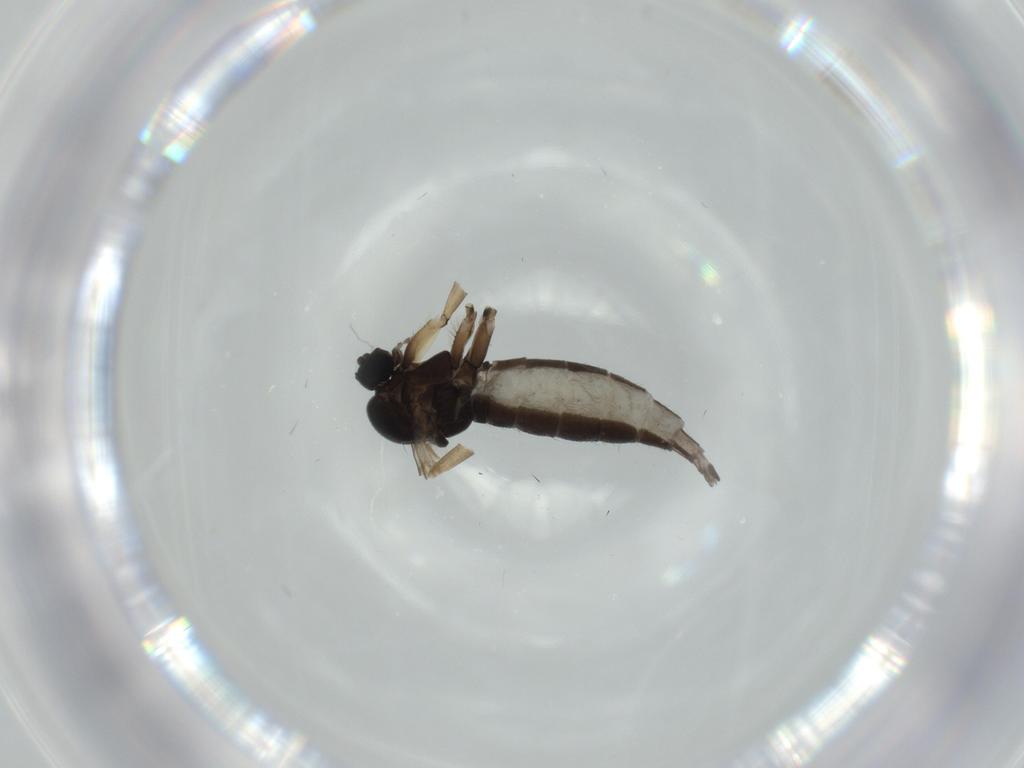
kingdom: Animalia
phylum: Arthropoda
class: Insecta
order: Diptera
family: Sciaridae
